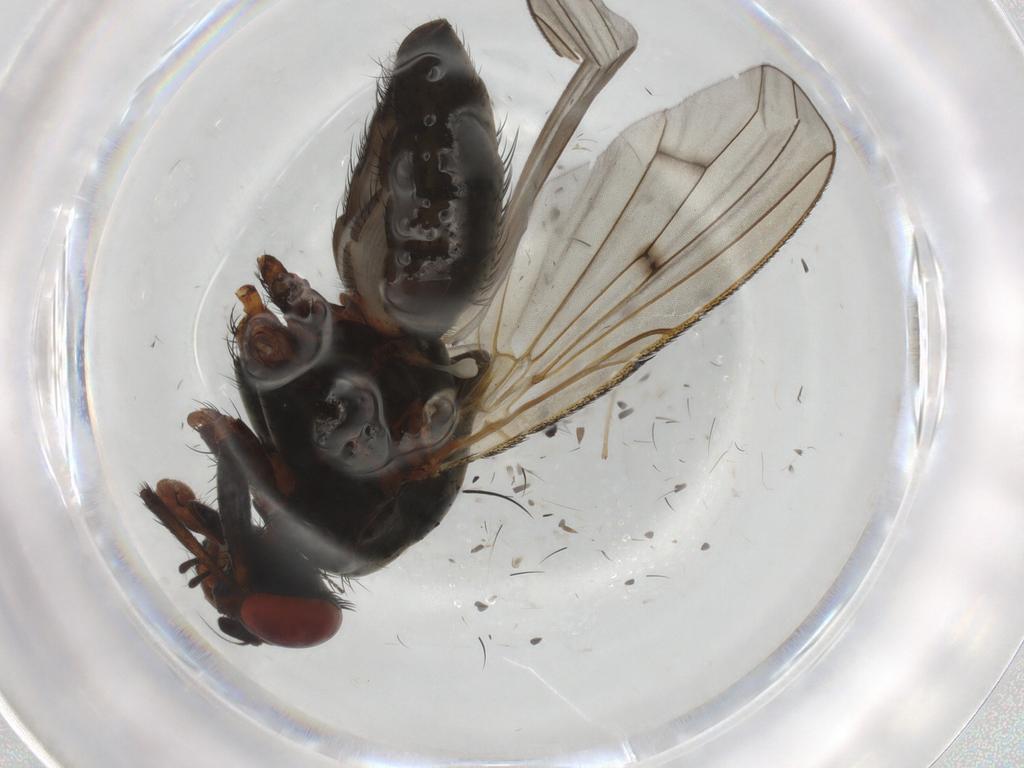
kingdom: Animalia
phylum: Arthropoda
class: Insecta
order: Diptera
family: Anthomyiidae
